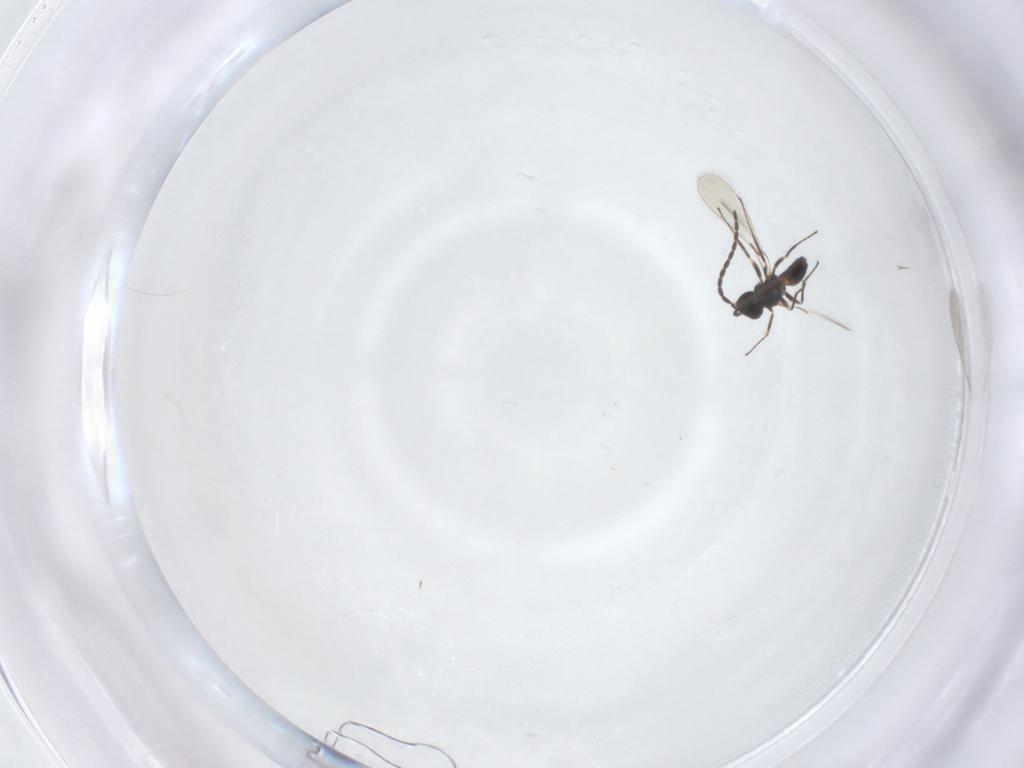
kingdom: Animalia
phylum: Arthropoda
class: Insecta
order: Hymenoptera
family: Mymaridae
